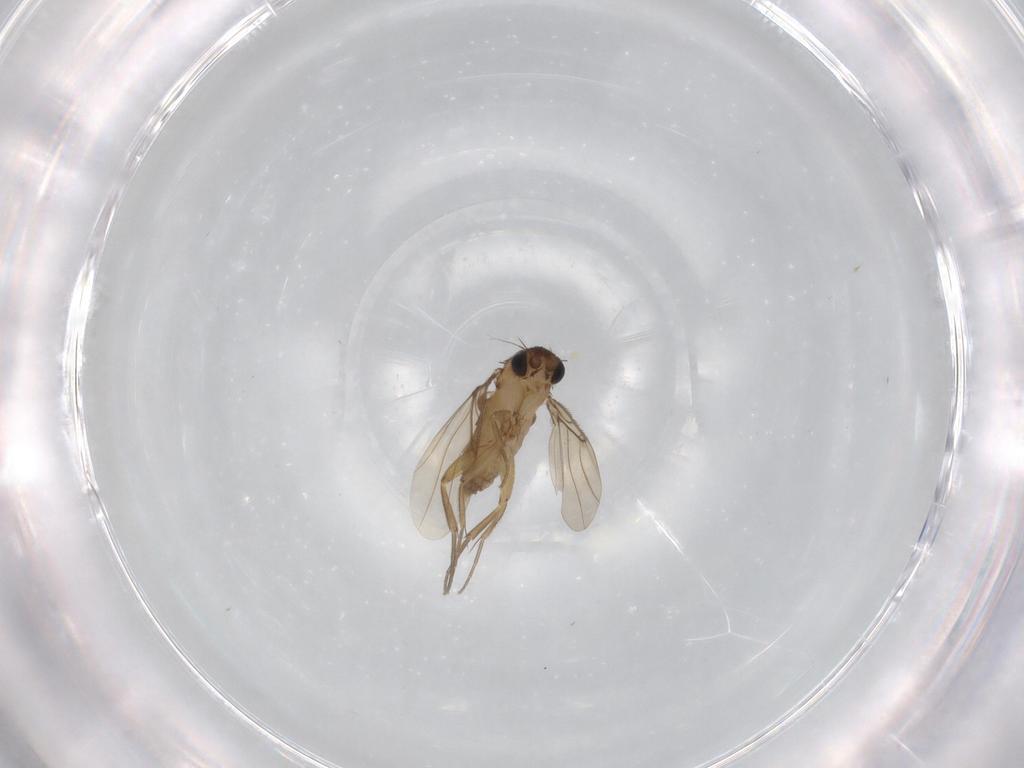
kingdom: Animalia
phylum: Arthropoda
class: Insecta
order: Diptera
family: Phoridae
